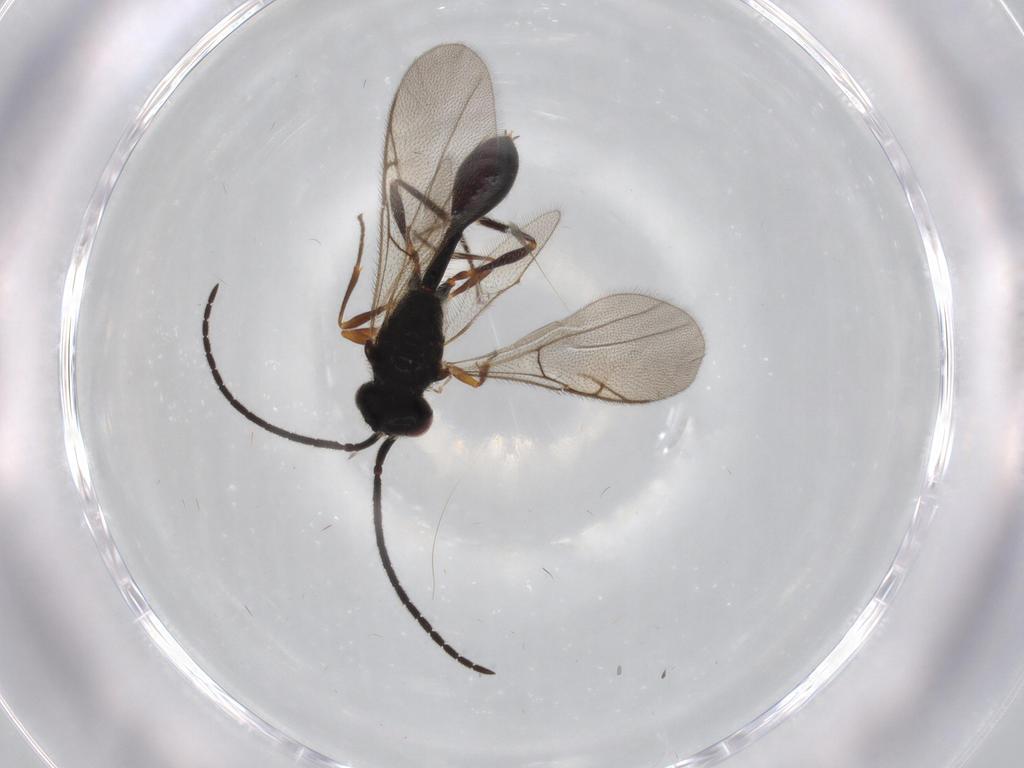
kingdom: Animalia
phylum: Arthropoda
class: Insecta
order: Hymenoptera
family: Diapriidae
